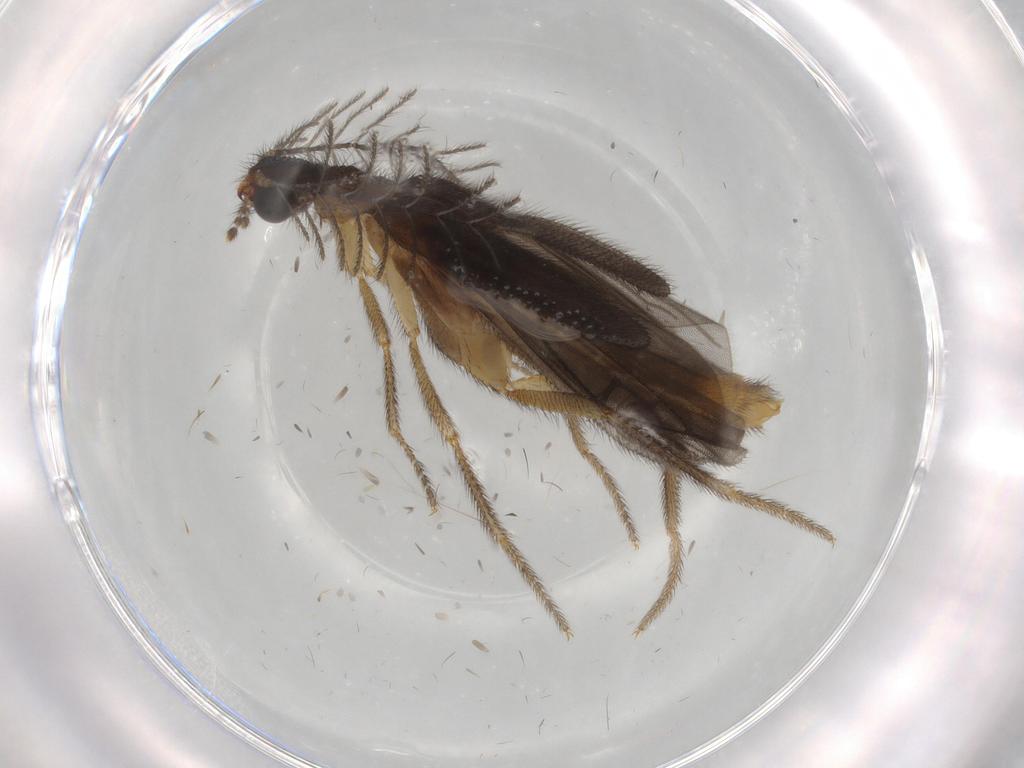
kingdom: Animalia
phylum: Arthropoda
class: Insecta
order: Coleoptera
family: Phengodidae
